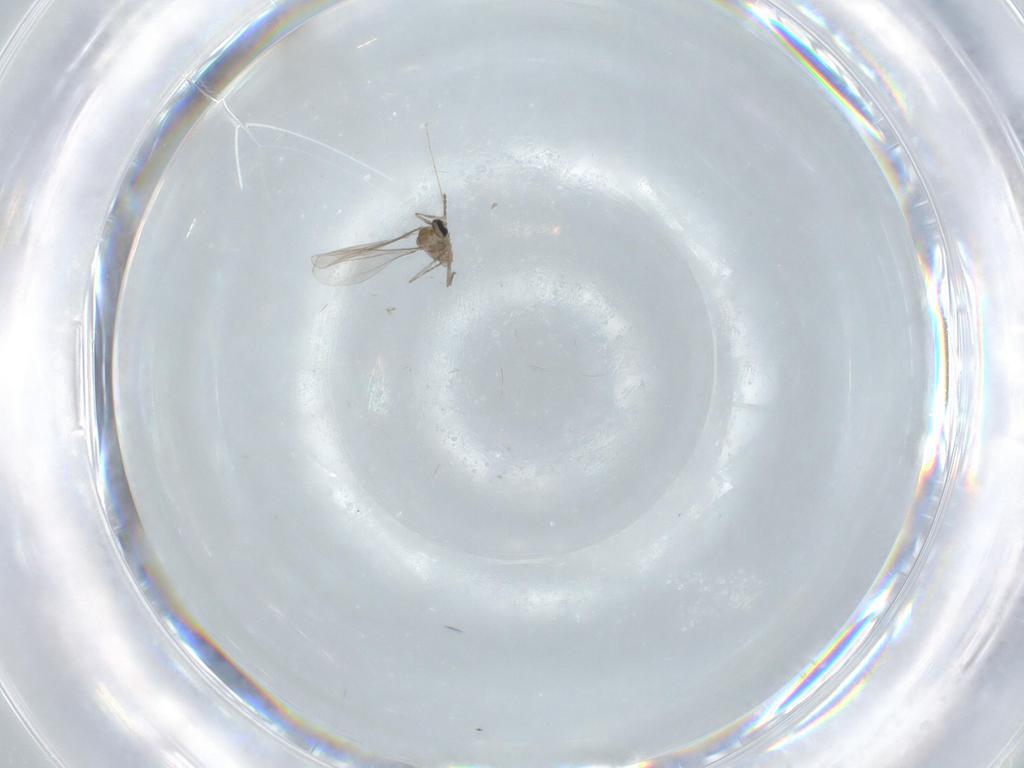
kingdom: Animalia
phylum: Arthropoda
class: Insecta
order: Diptera
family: Cecidomyiidae
